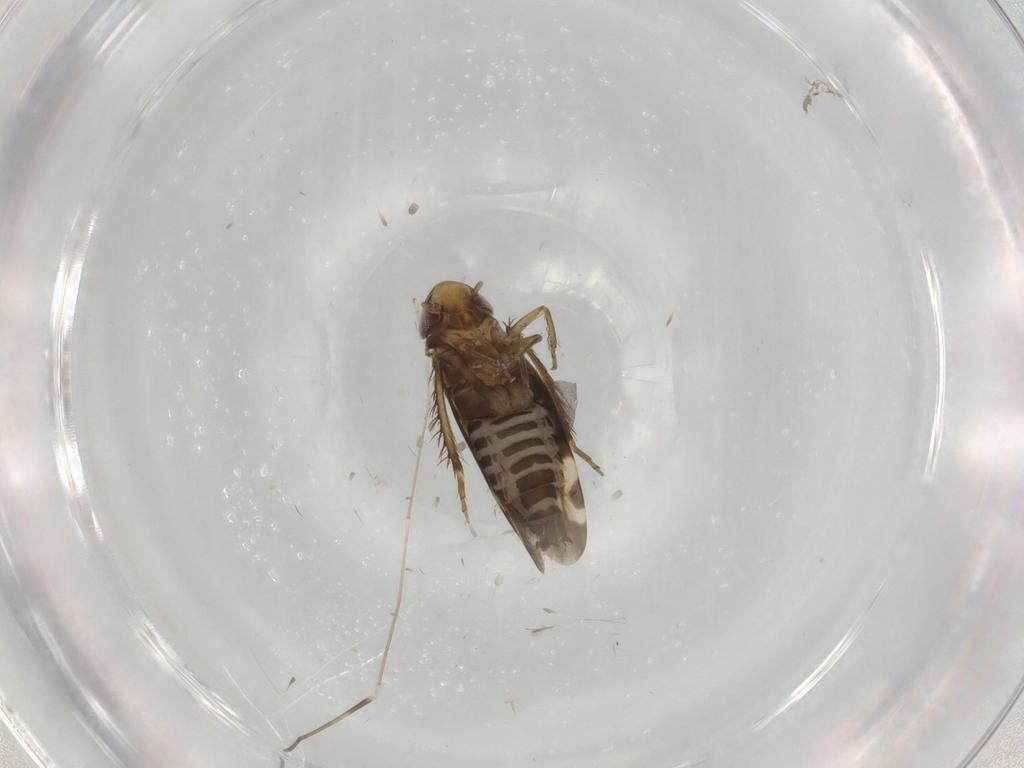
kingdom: Animalia
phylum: Arthropoda
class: Insecta
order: Hemiptera
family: Cicadellidae
